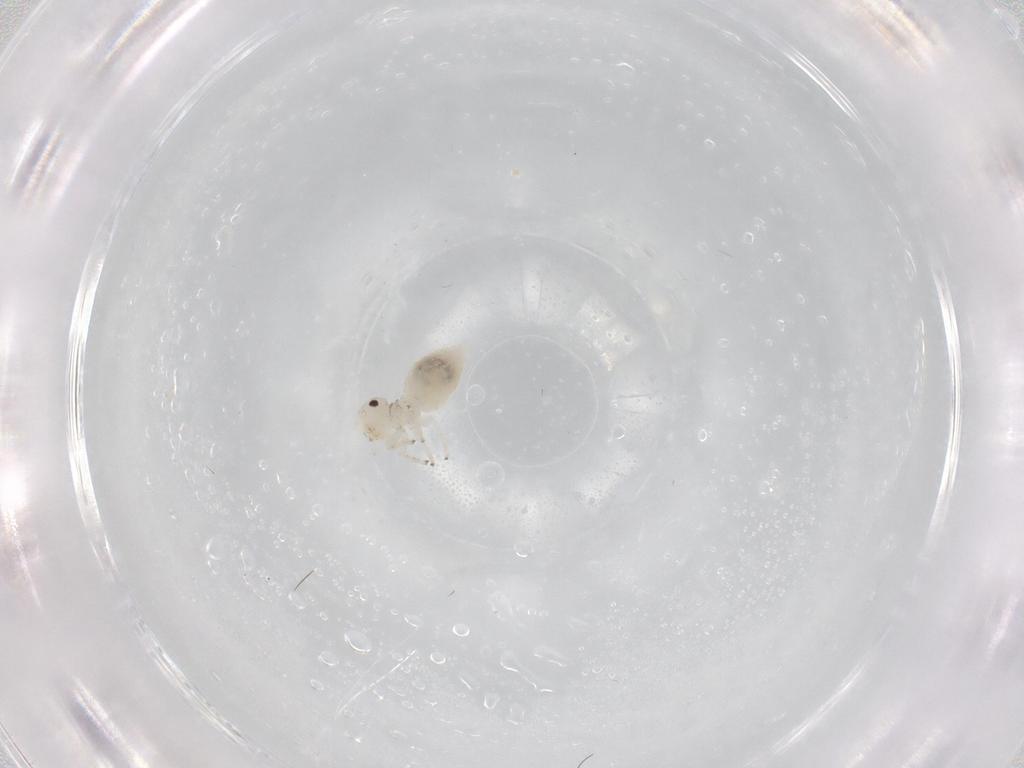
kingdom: Animalia
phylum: Arthropoda
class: Insecta
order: Psocodea
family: Amphipsocidae
